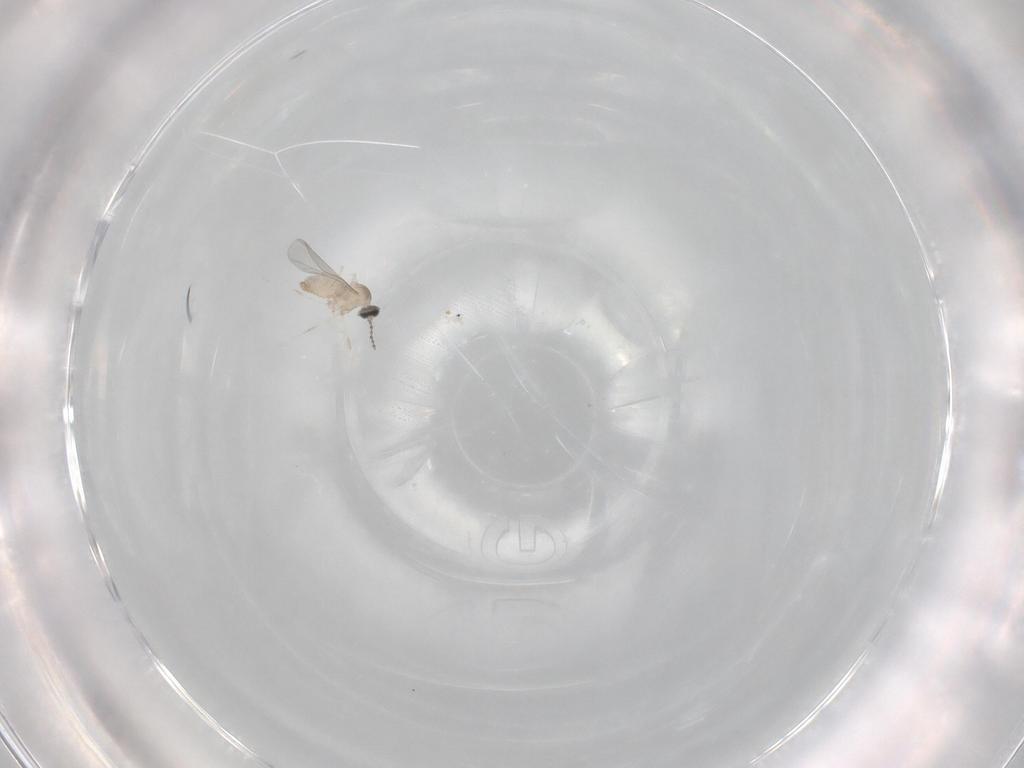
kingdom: Animalia
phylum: Arthropoda
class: Insecta
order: Diptera
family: Cecidomyiidae
